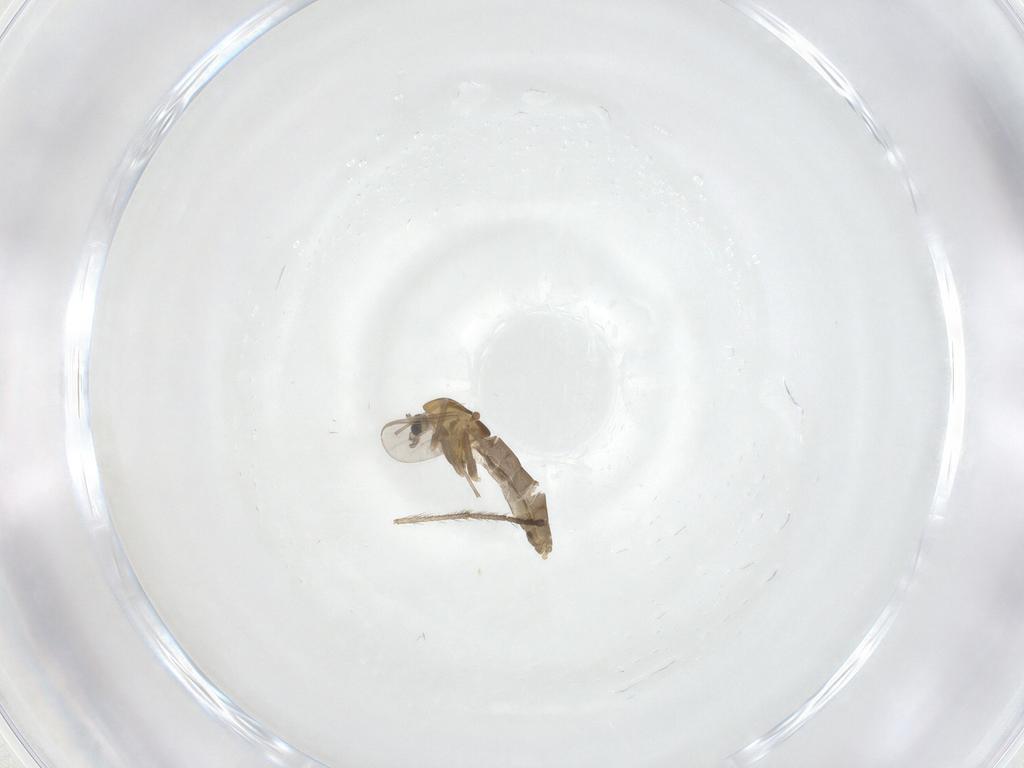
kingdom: Animalia
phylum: Arthropoda
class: Insecta
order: Diptera
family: Chironomidae
